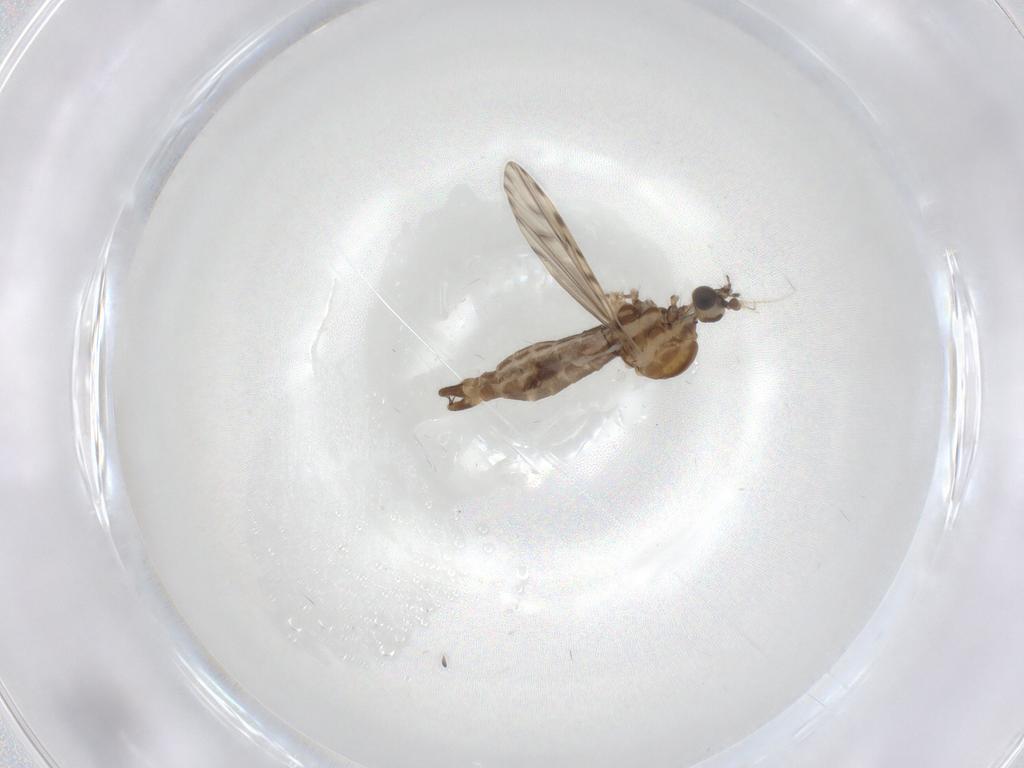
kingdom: Animalia
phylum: Arthropoda
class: Insecta
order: Diptera
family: Limoniidae
